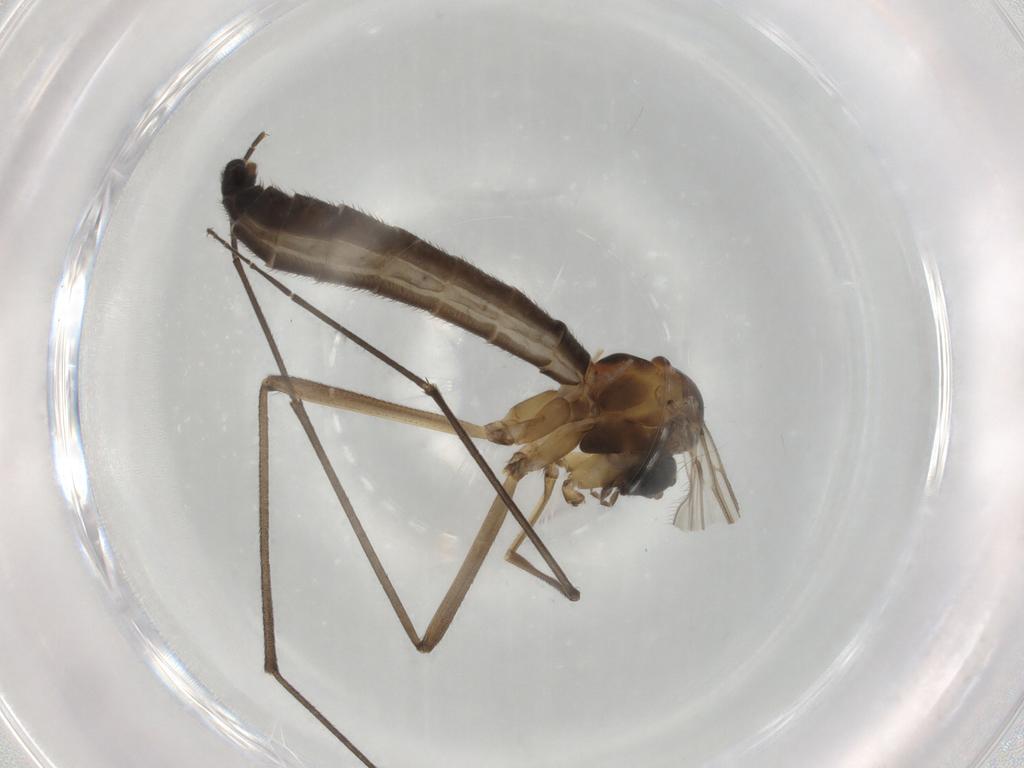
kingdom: Animalia
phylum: Arthropoda
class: Insecta
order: Diptera
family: Bolitophilidae
